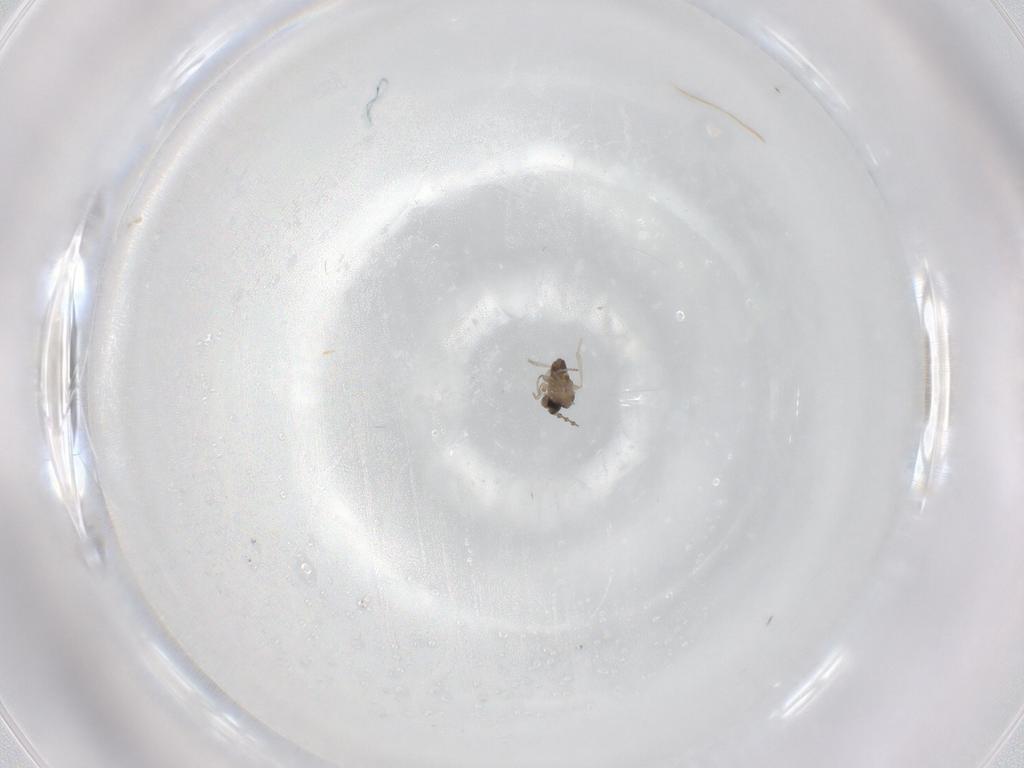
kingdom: Animalia
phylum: Arthropoda
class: Insecta
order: Diptera
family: Cecidomyiidae
